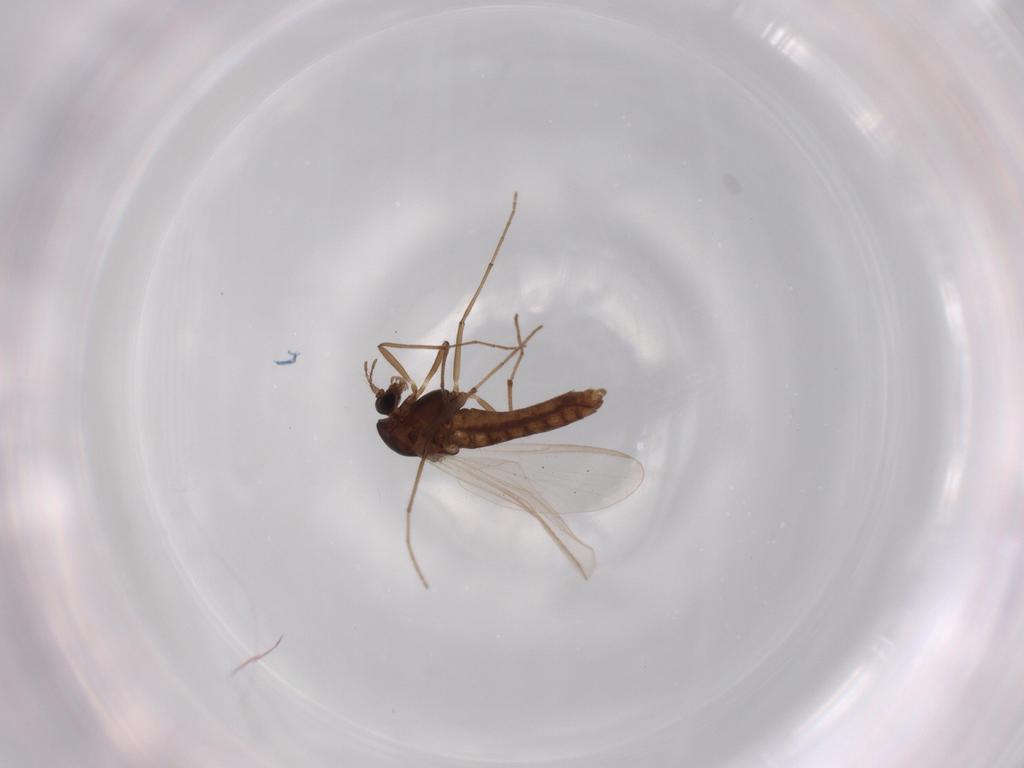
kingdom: Animalia
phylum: Arthropoda
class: Insecta
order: Diptera
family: Chironomidae
